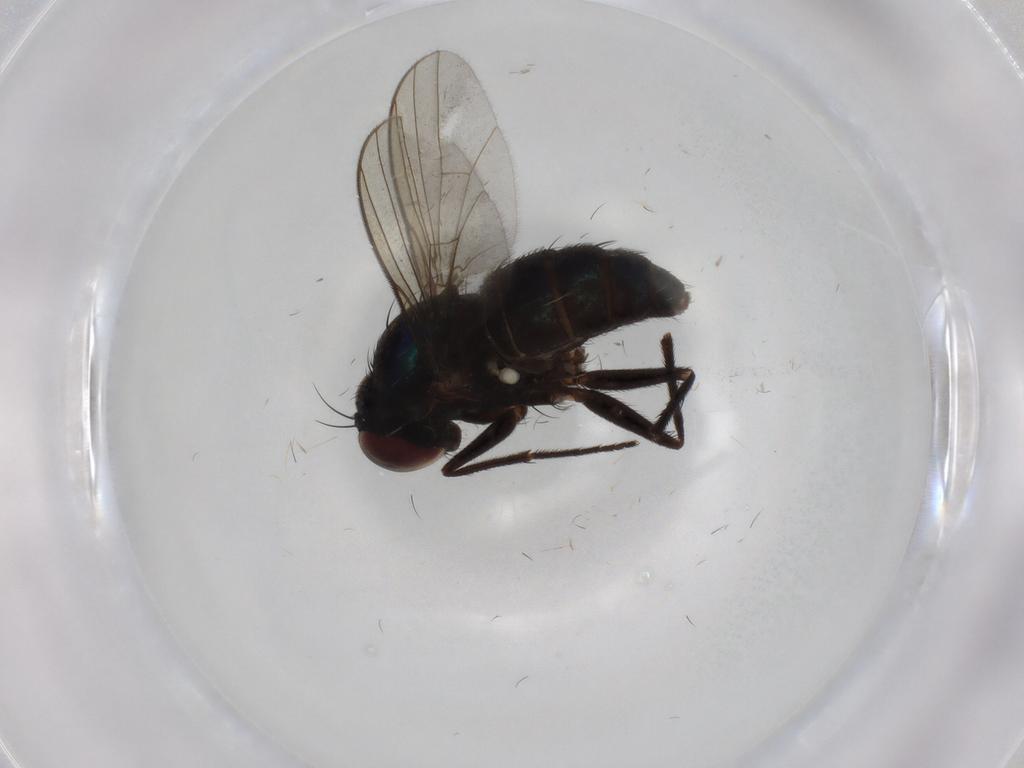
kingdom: Animalia
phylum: Arthropoda
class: Insecta
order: Diptera
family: Dolichopodidae
